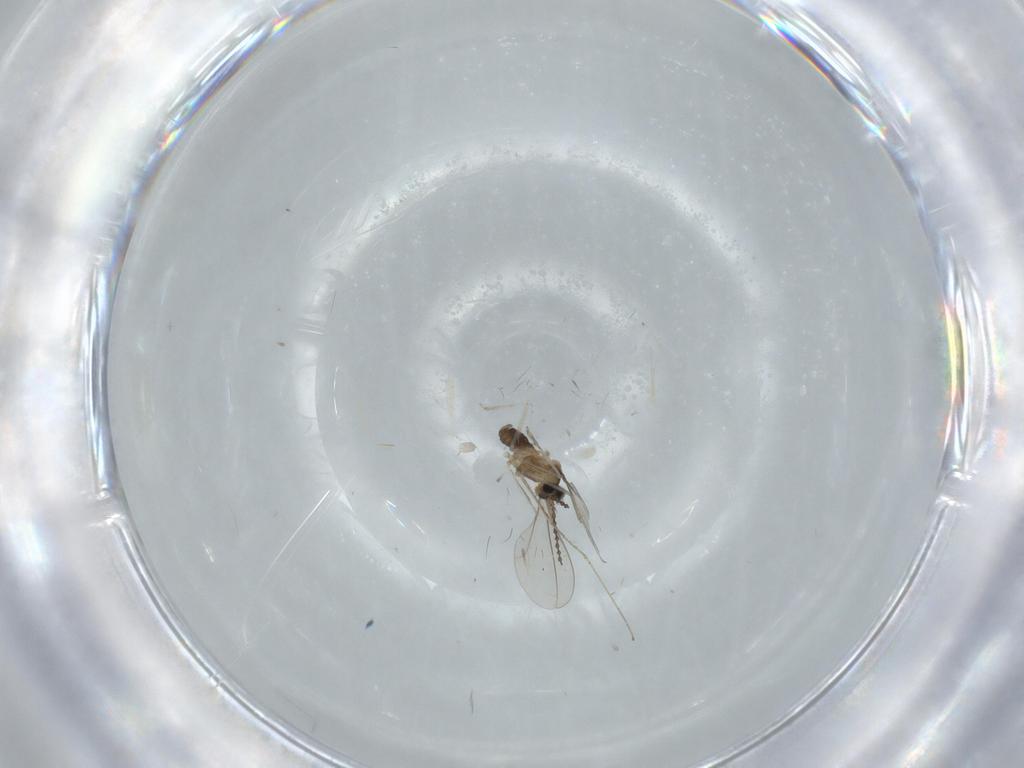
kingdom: Animalia
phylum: Arthropoda
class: Insecta
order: Diptera
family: Cecidomyiidae
